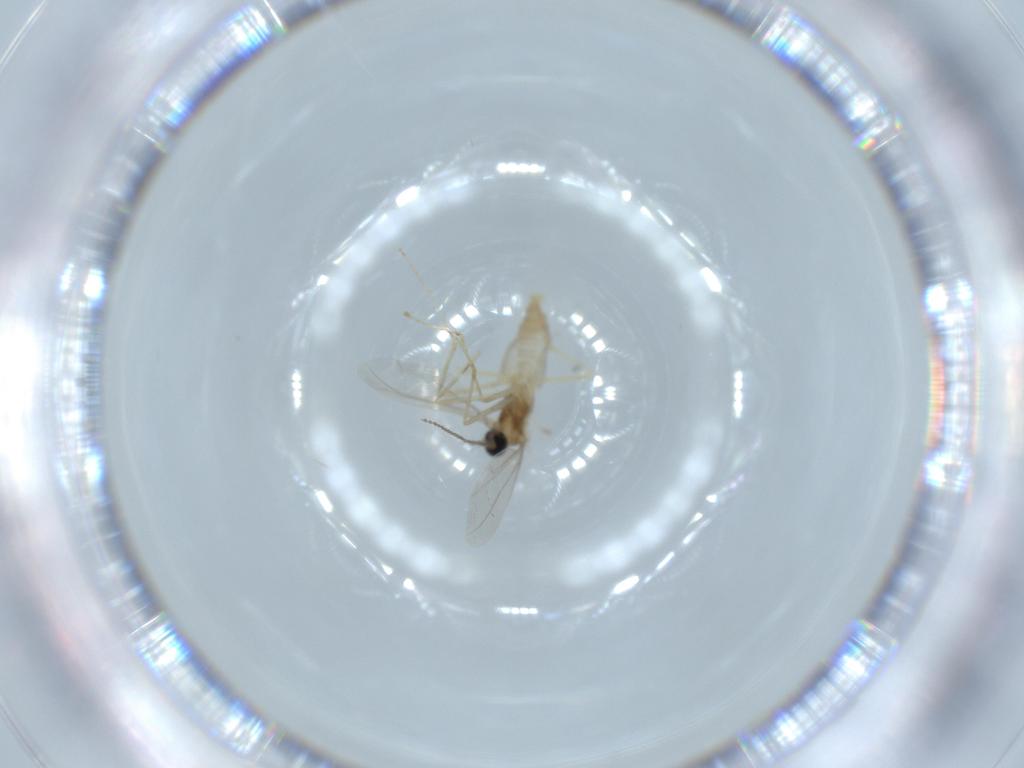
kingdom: Animalia
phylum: Arthropoda
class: Insecta
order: Diptera
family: Cecidomyiidae
